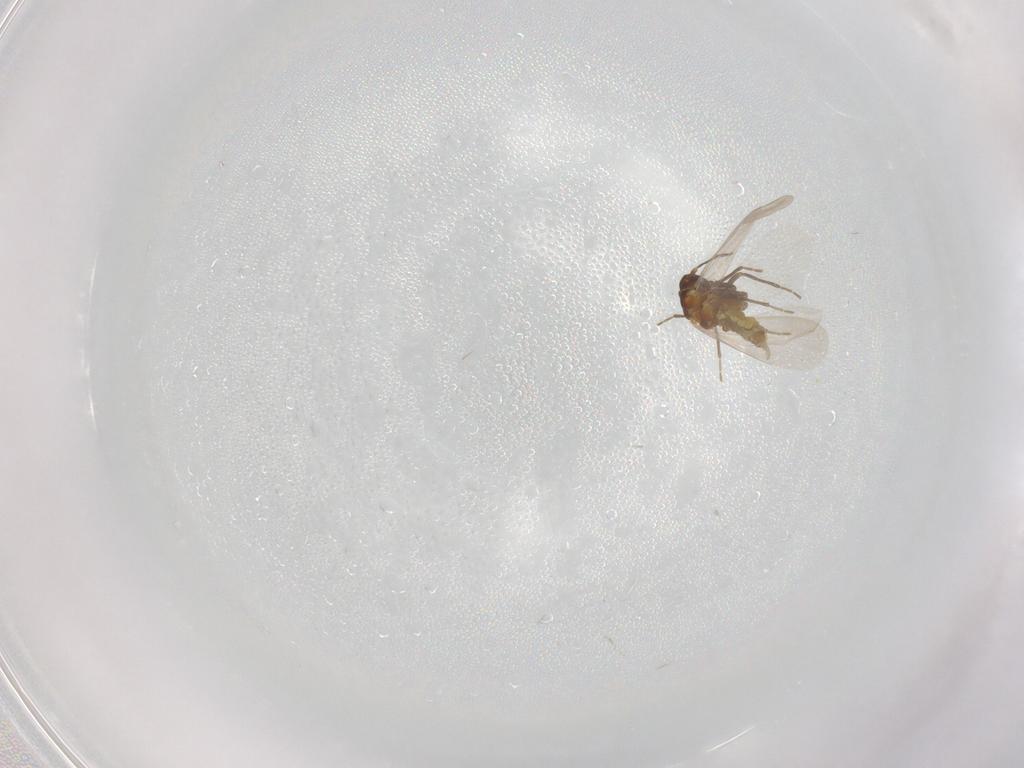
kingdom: Animalia
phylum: Arthropoda
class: Insecta
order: Hemiptera
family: Aleyrodidae
